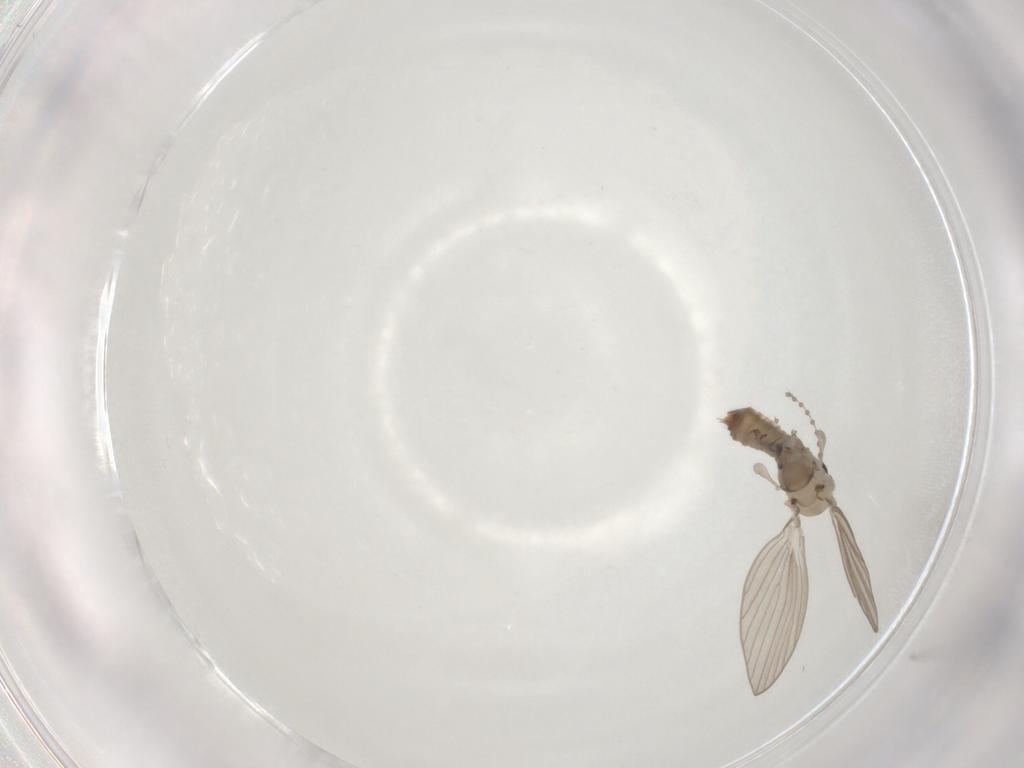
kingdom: Animalia
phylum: Arthropoda
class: Insecta
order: Diptera
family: Psychodidae
